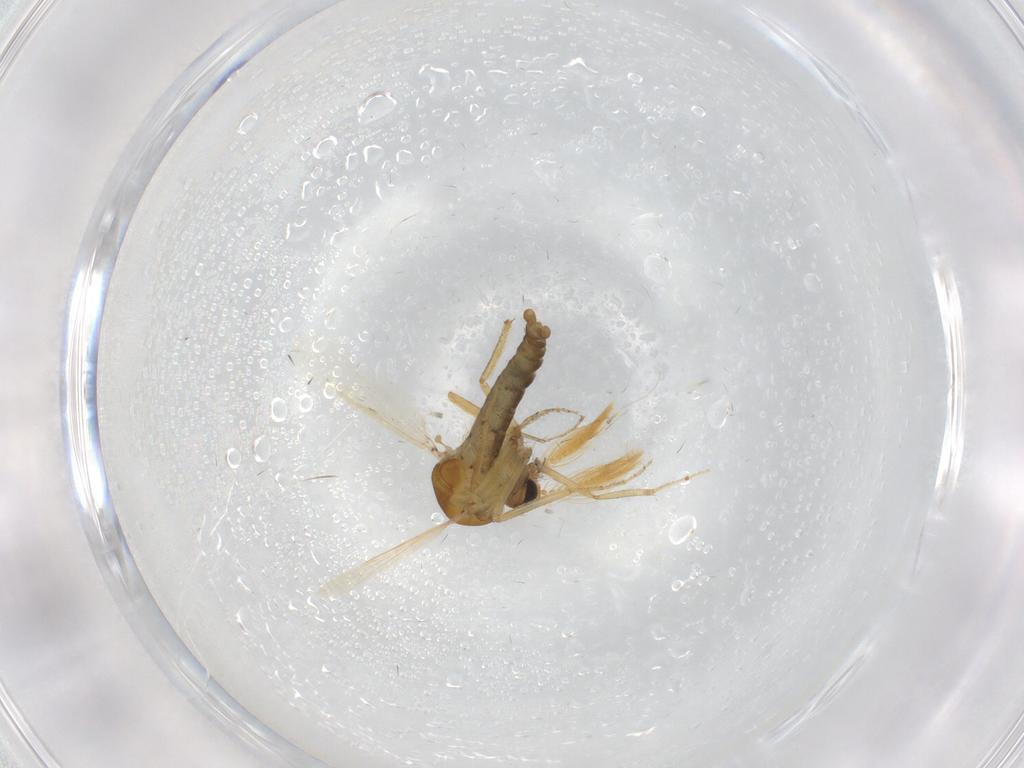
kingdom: Animalia
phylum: Arthropoda
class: Insecta
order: Diptera
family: Ceratopogonidae
